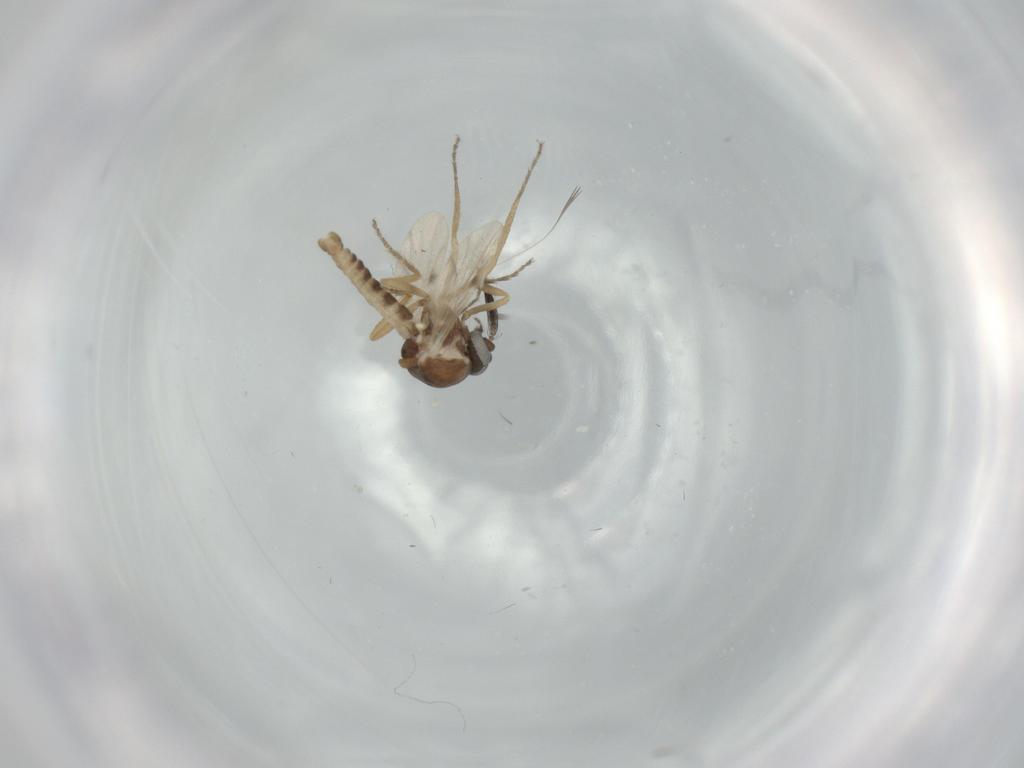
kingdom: Animalia
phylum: Arthropoda
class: Insecta
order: Diptera
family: Ceratopogonidae
